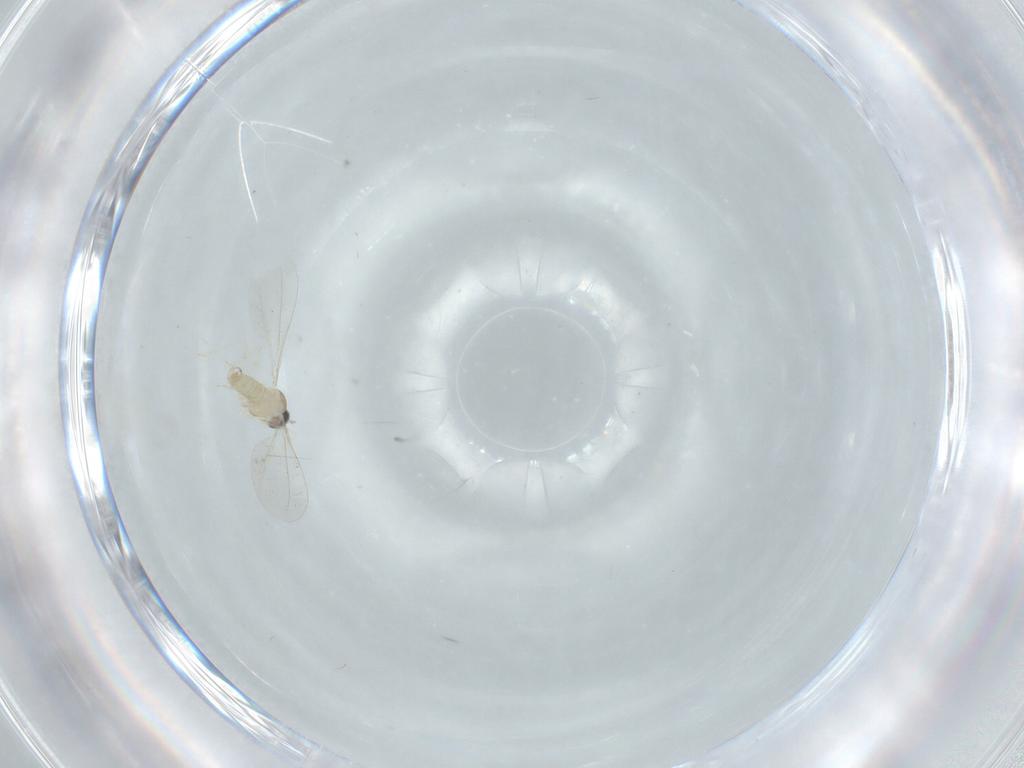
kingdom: Animalia
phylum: Arthropoda
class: Insecta
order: Diptera
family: Cecidomyiidae
